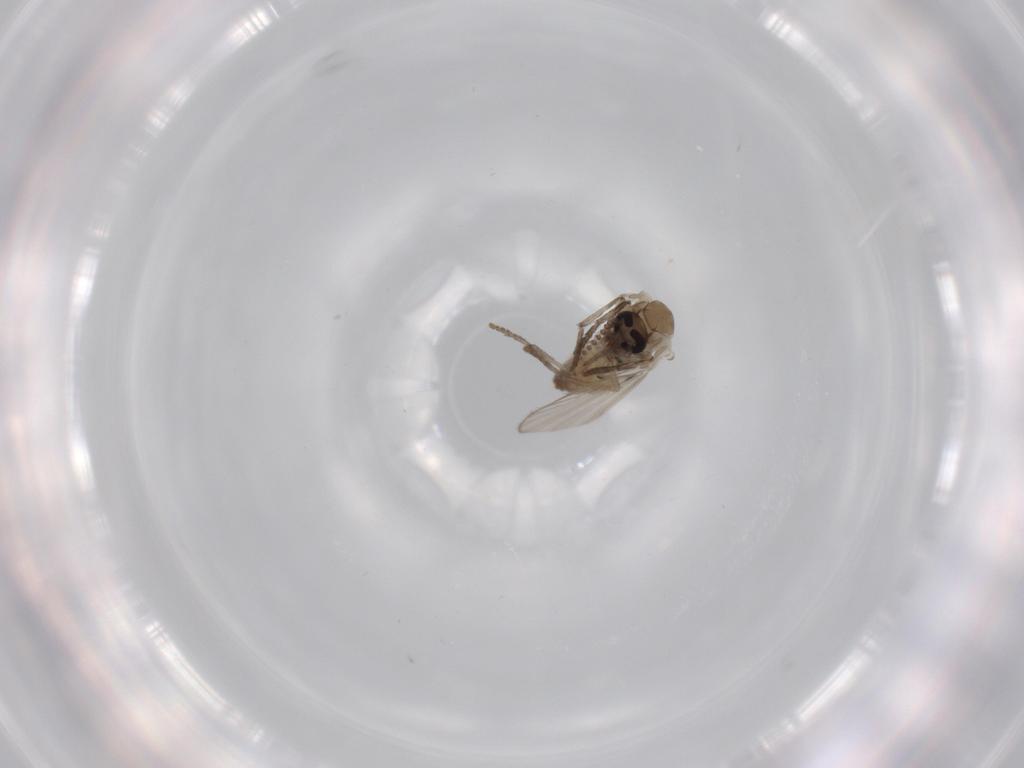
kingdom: Animalia
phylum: Arthropoda
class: Insecta
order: Diptera
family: Psychodidae
